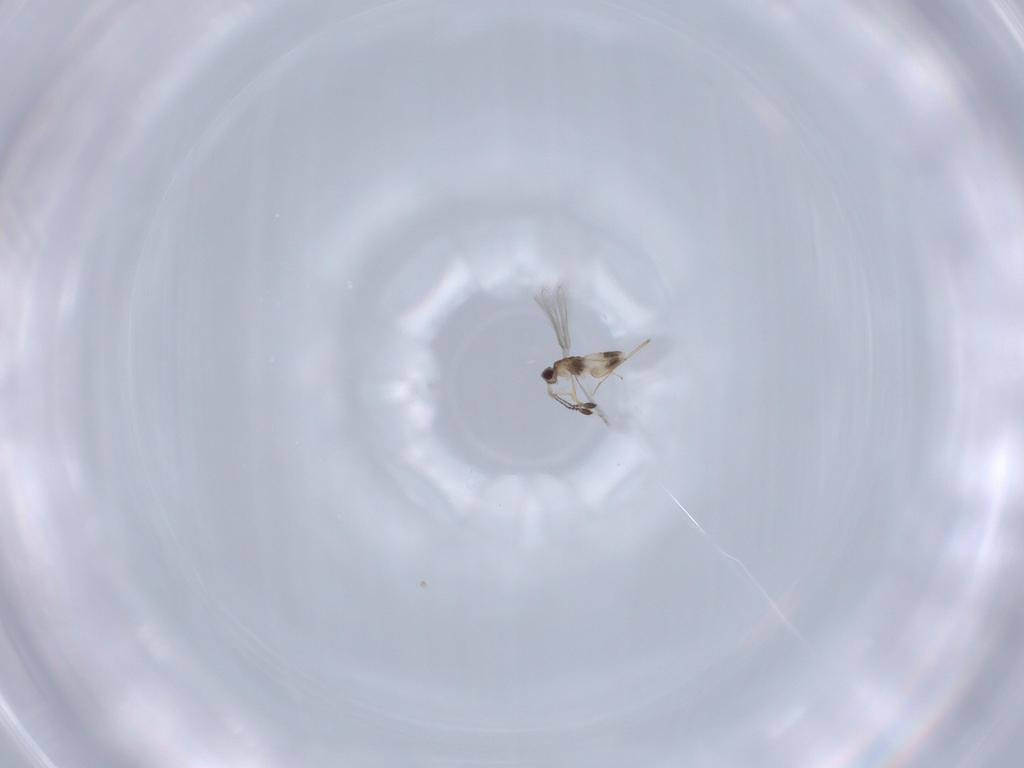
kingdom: Animalia
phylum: Arthropoda
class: Insecta
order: Hymenoptera
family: Mymaridae
